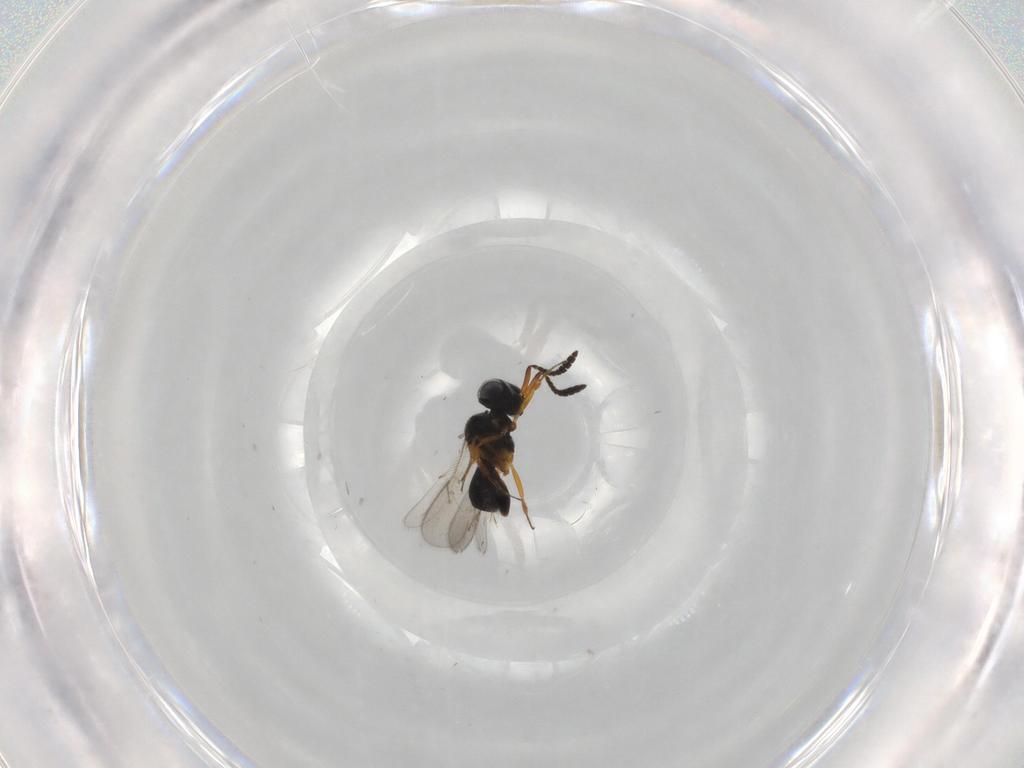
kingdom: Animalia
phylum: Arthropoda
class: Insecta
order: Hymenoptera
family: Scelionidae
